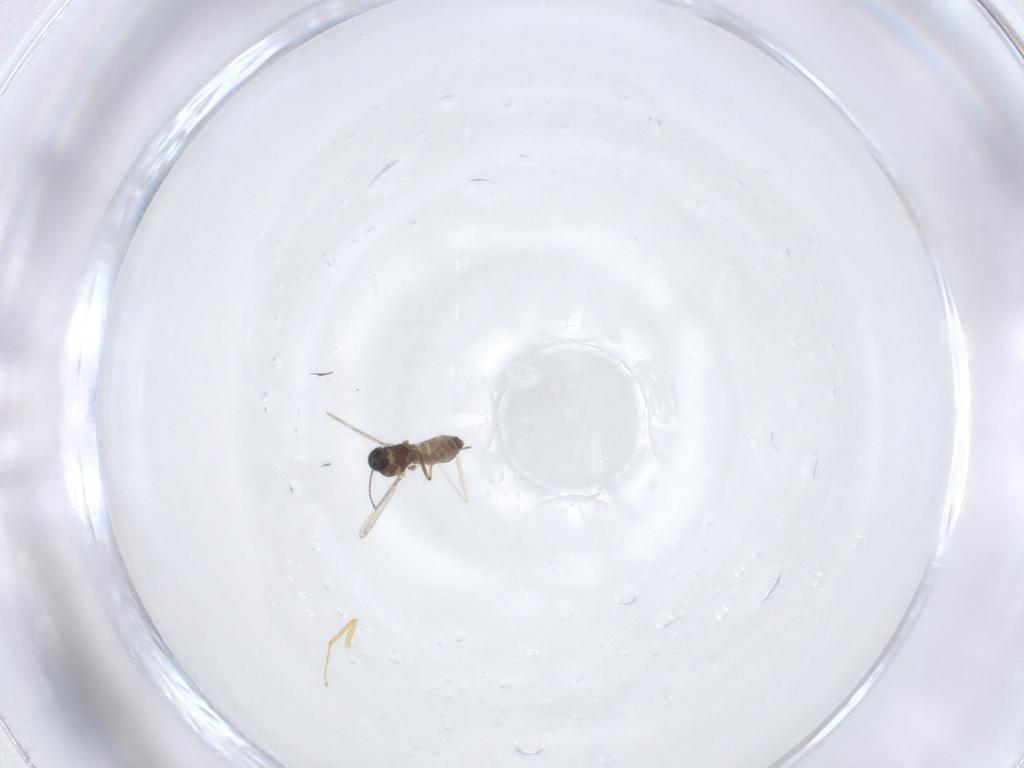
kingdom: Animalia
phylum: Arthropoda
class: Insecta
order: Diptera
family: Ceratopogonidae
